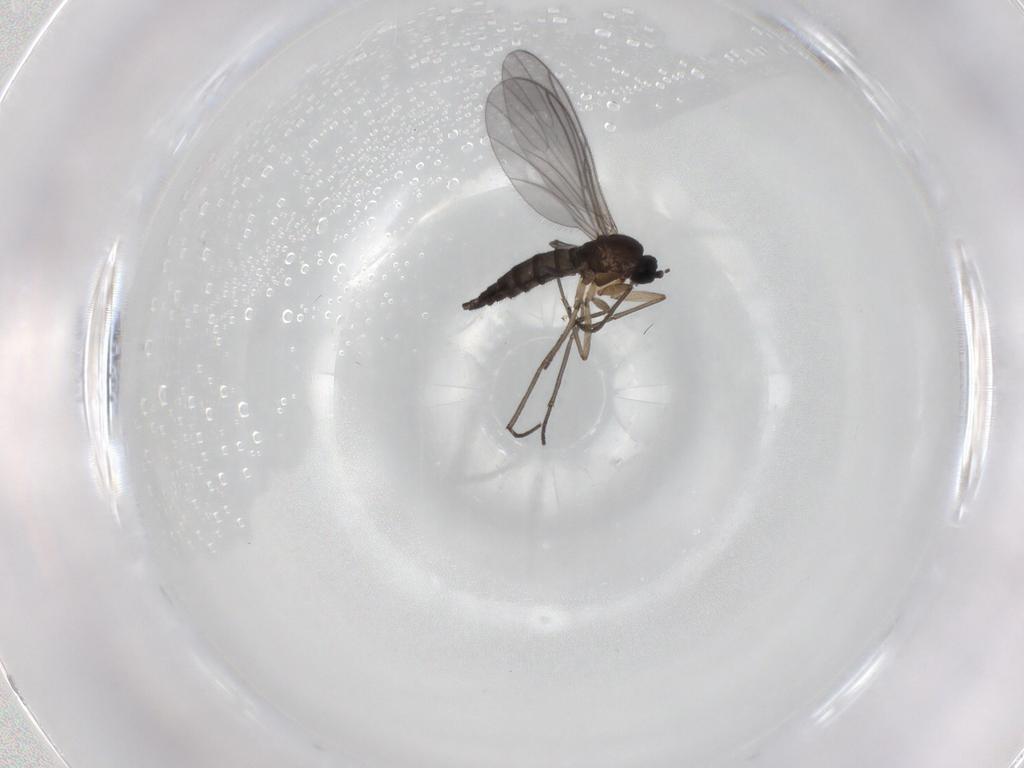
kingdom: Animalia
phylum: Arthropoda
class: Insecta
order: Diptera
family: Sciaridae
